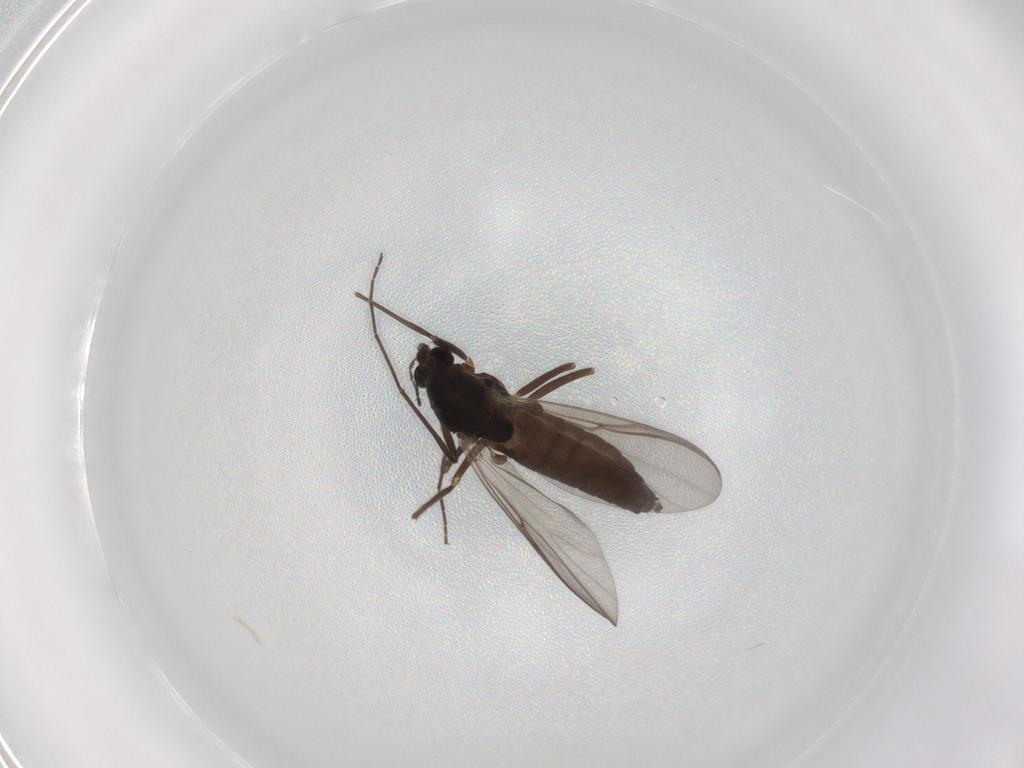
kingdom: Animalia
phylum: Arthropoda
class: Insecta
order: Diptera
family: Chironomidae
